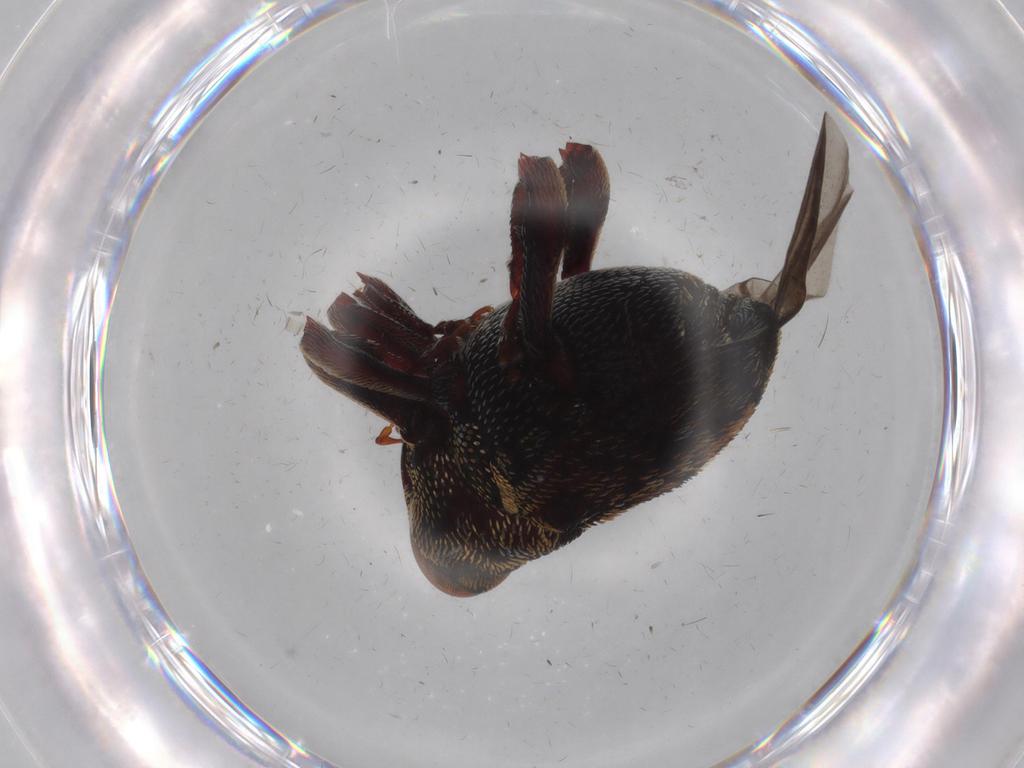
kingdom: Animalia
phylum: Arthropoda
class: Insecta
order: Coleoptera
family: Curculionidae
